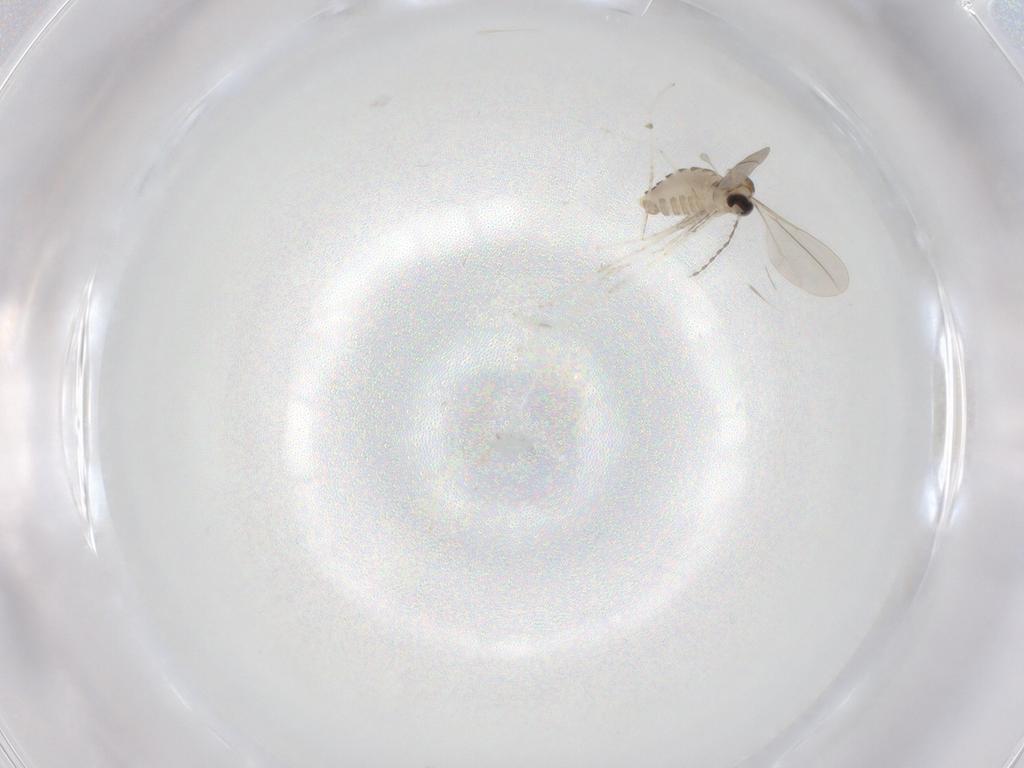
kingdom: Animalia
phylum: Arthropoda
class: Insecta
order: Diptera
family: Cecidomyiidae
